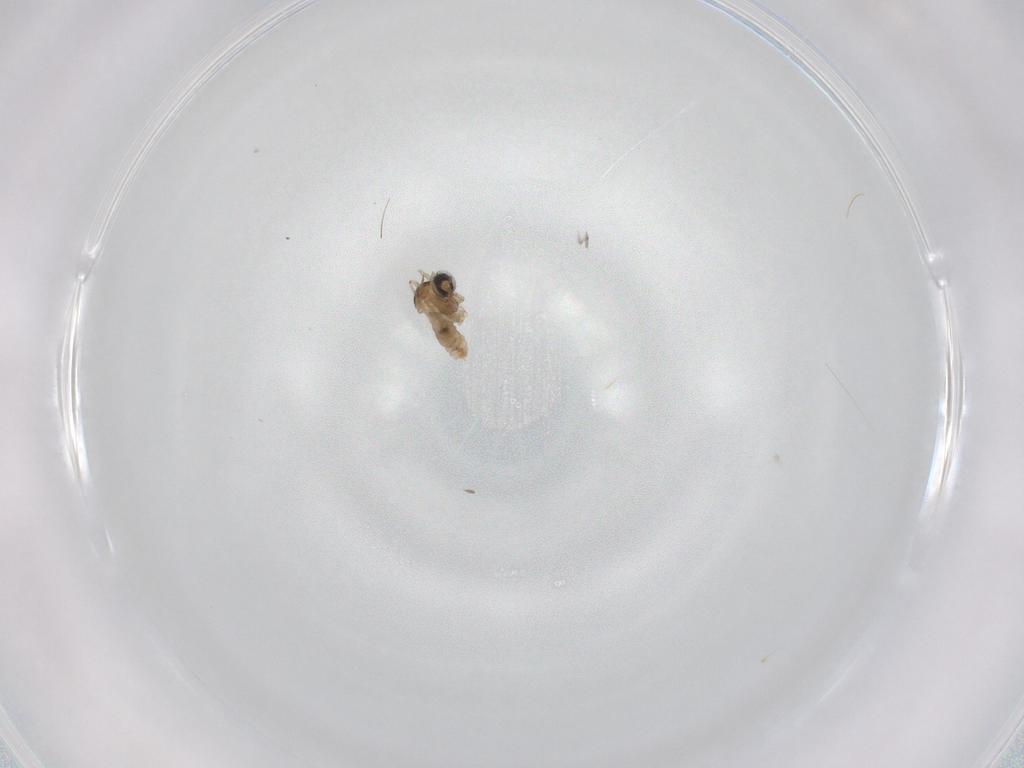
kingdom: Animalia
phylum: Arthropoda
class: Insecta
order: Diptera
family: Cecidomyiidae
